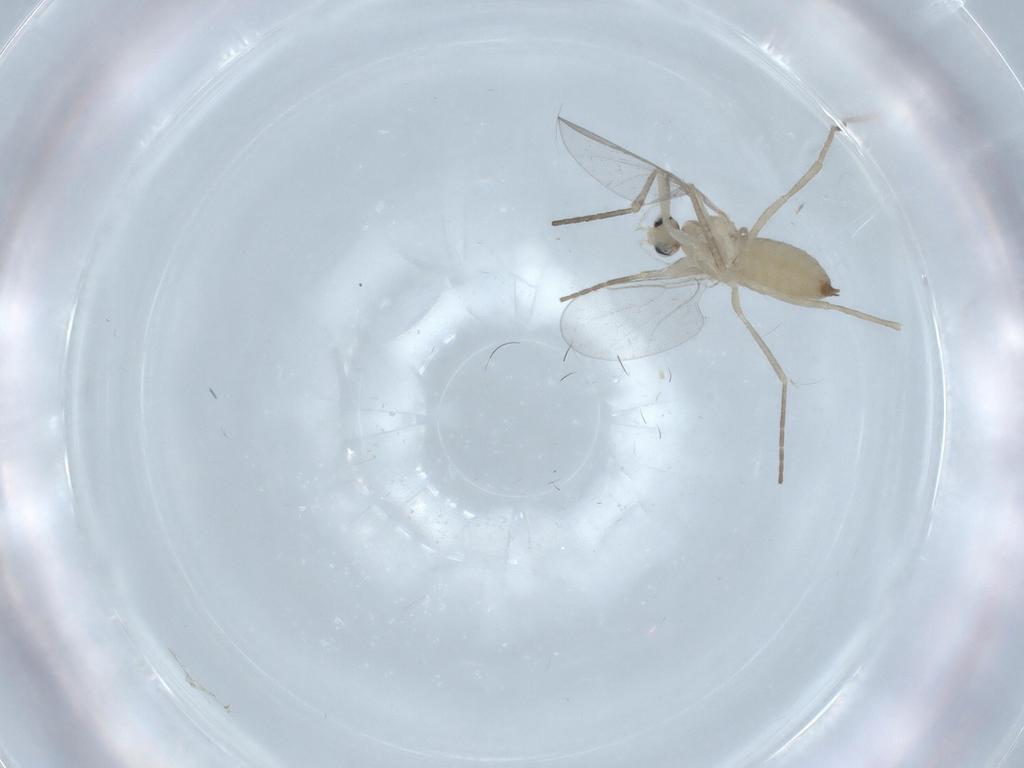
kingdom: Animalia
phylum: Arthropoda
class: Insecta
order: Diptera
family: Cecidomyiidae
